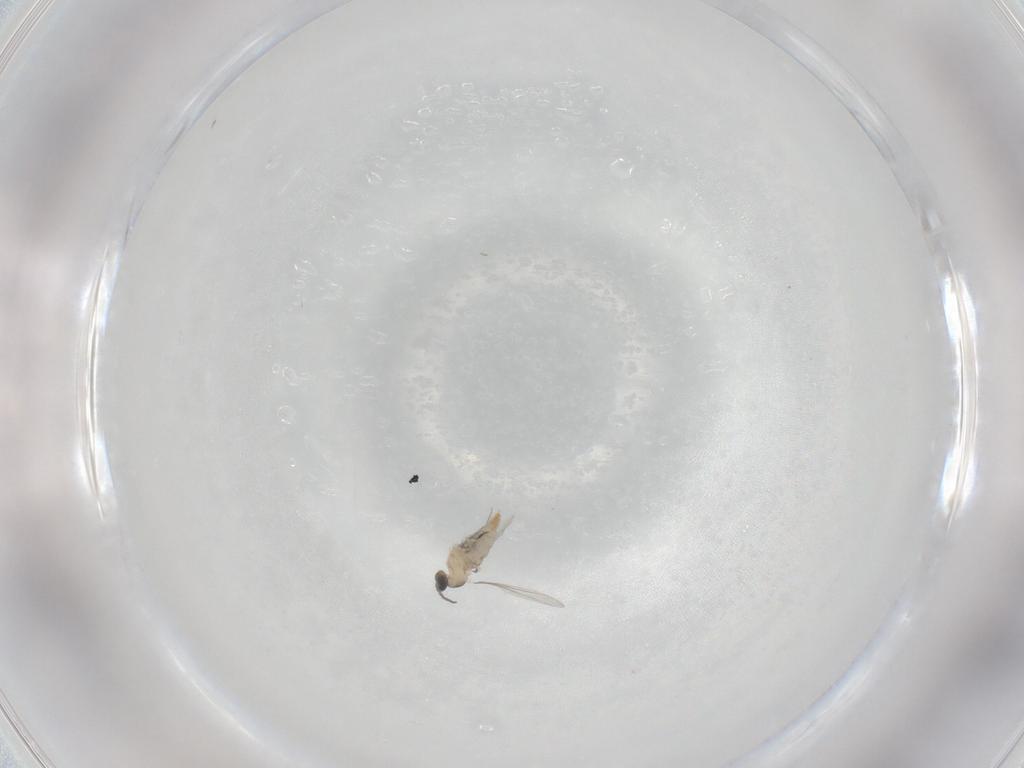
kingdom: Animalia
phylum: Arthropoda
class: Insecta
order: Diptera
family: Cecidomyiidae
